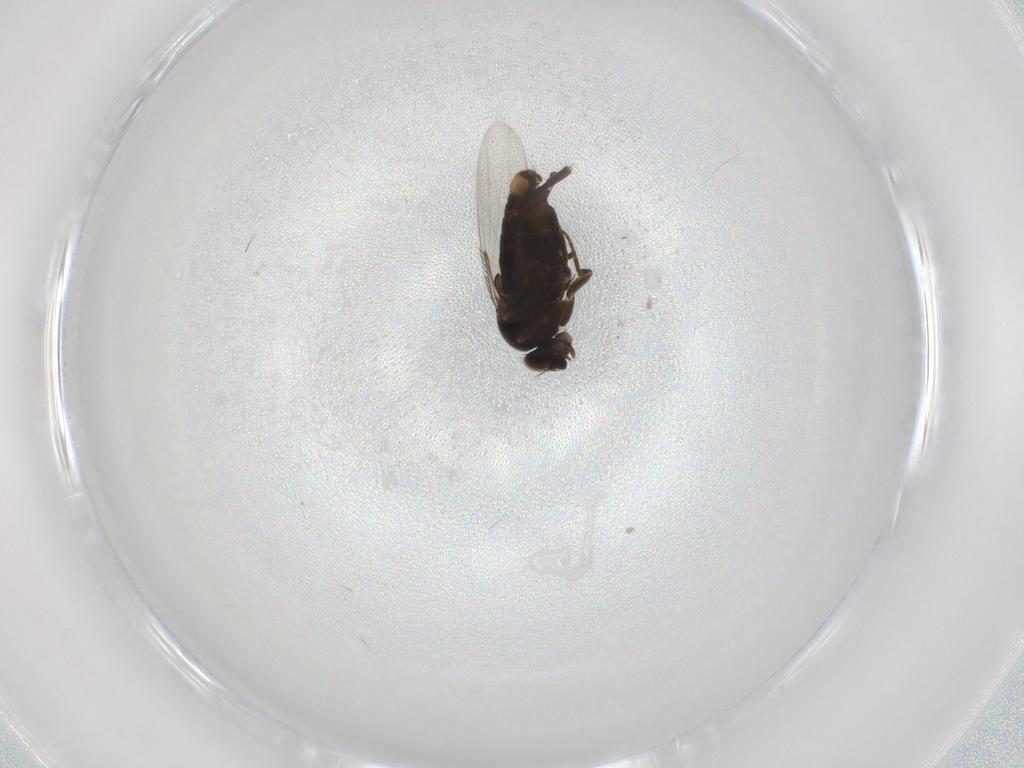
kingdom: Animalia
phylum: Arthropoda
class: Insecta
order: Diptera
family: Phoridae
